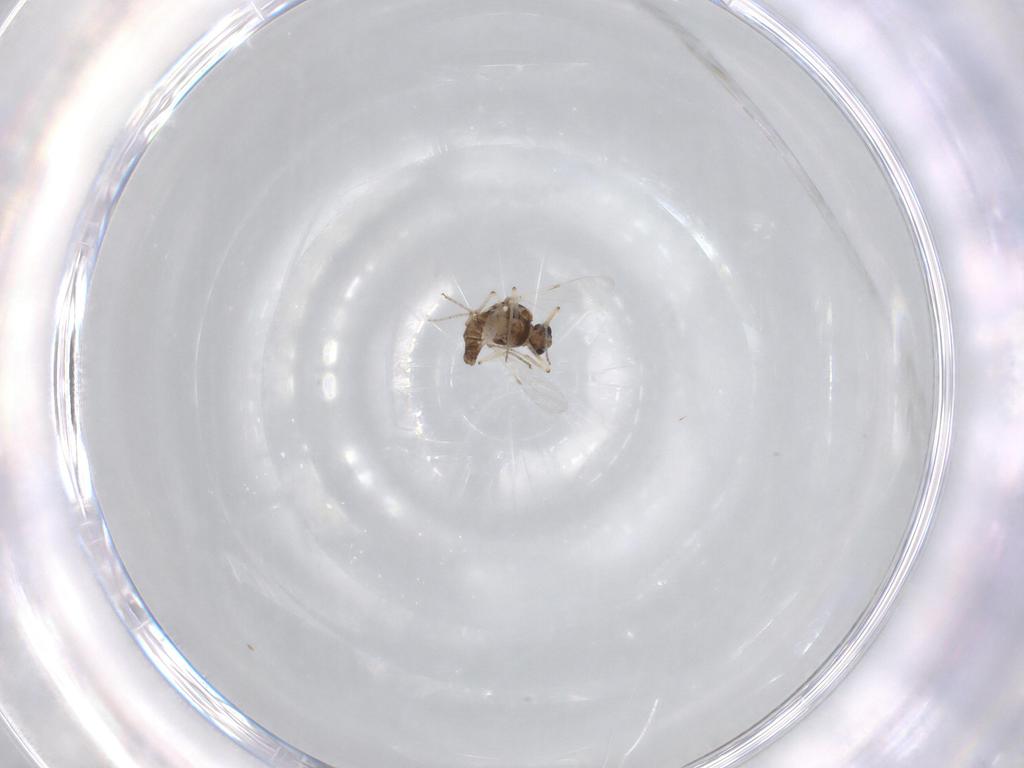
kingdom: Animalia
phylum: Arthropoda
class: Insecta
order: Diptera
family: Ceratopogonidae
